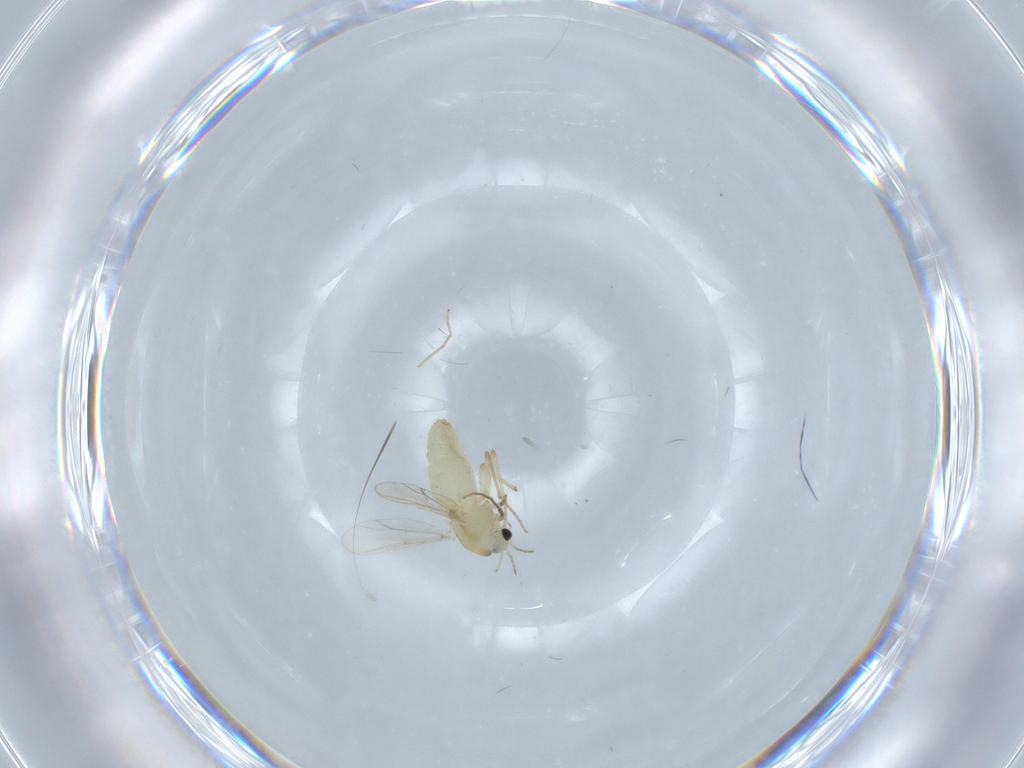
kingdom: Animalia
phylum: Arthropoda
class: Insecta
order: Diptera
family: Chironomidae
